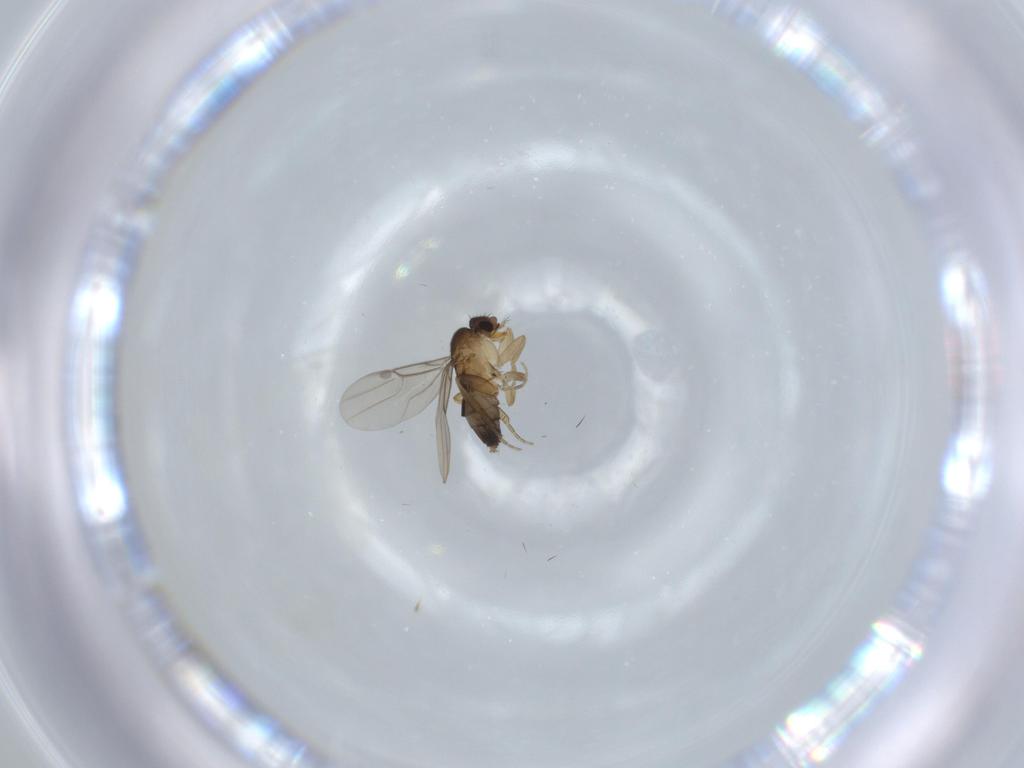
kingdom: Animalia
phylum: Arthropoda
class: Insecta
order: Diptera
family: Phoridae
